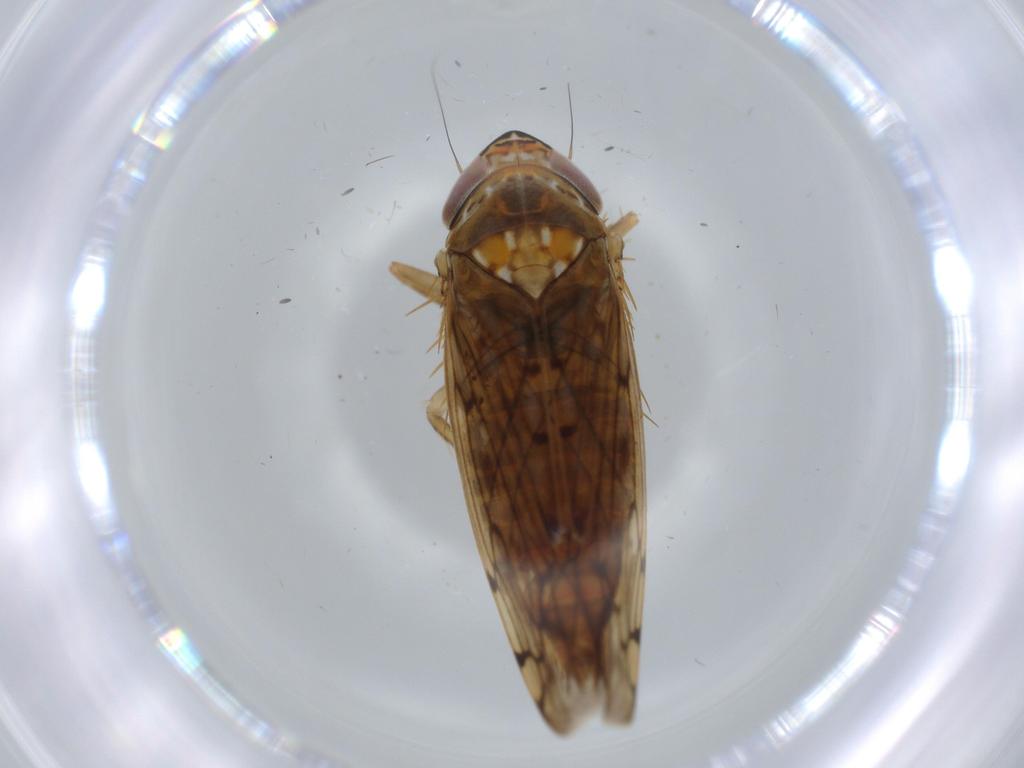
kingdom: Animalia
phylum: Arthropoda
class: Insecta
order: Hemiptera
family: Cicadellidae
